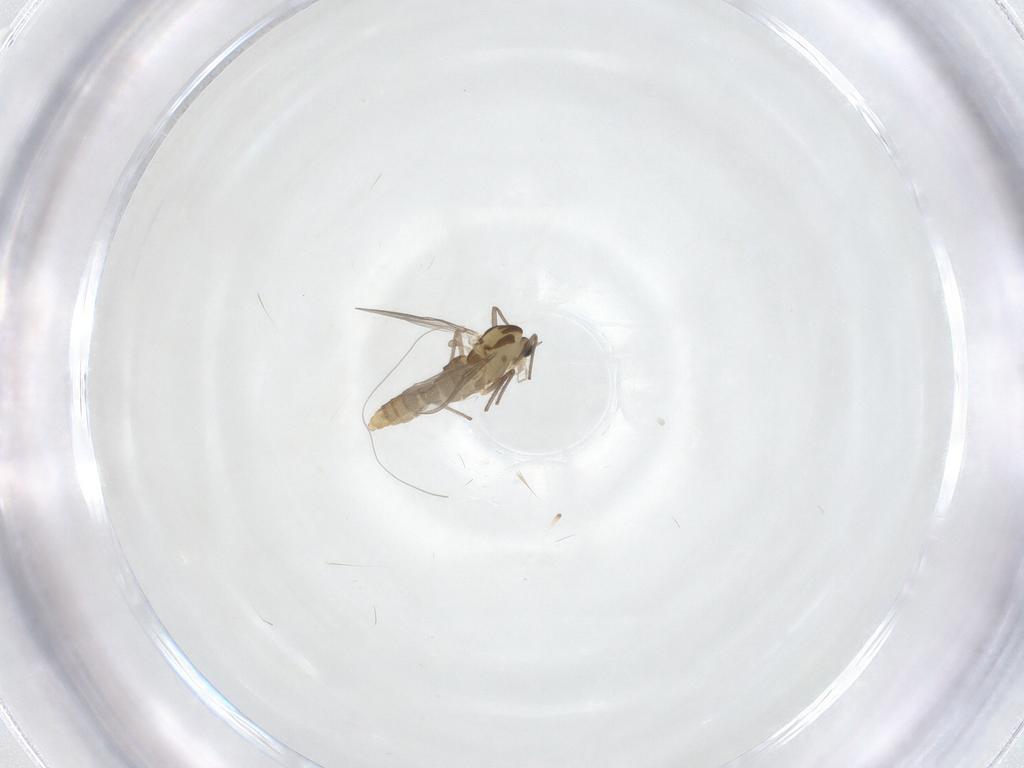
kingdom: Animalia
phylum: Arthropoda
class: Insecta
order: Diptera
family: Chironomidae
